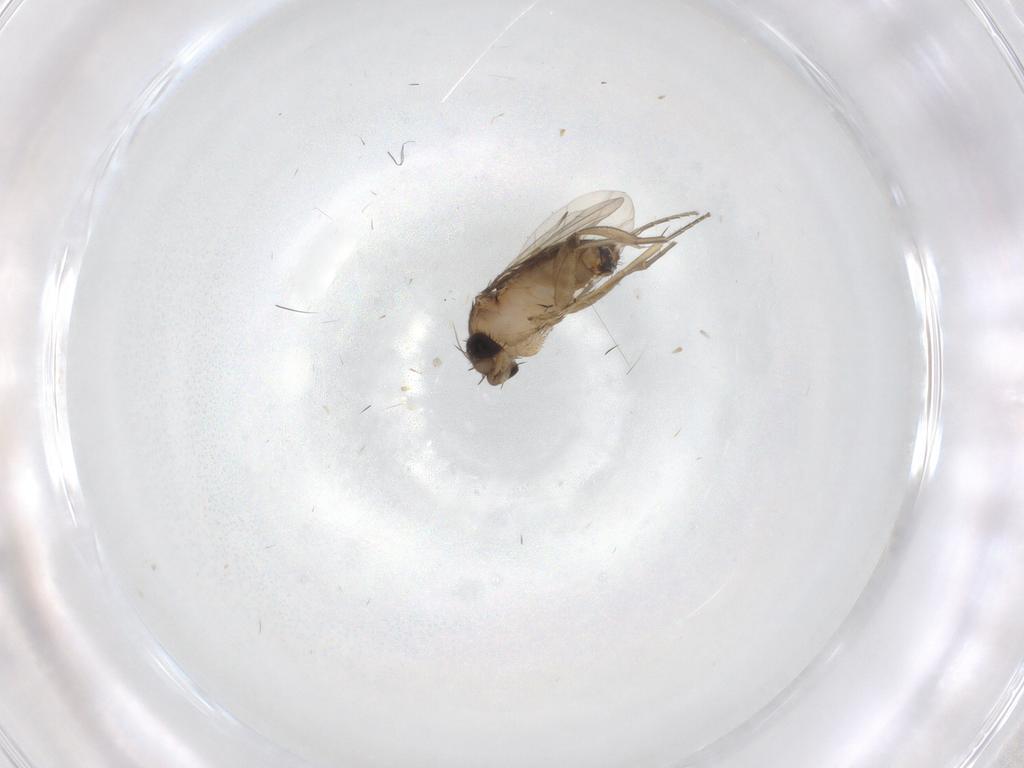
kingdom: Animalia
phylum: Arthropoda
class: Insecta
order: Diptera
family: Phoridae
